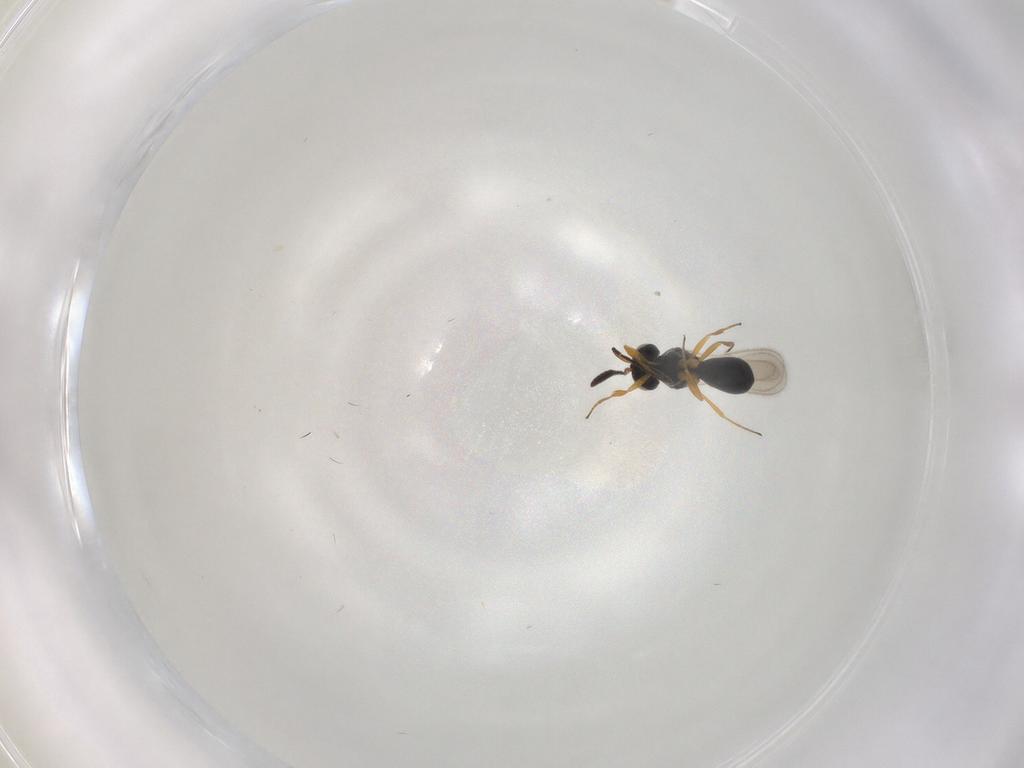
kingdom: Animalia
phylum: Arthropoda
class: Insecta
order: Hymenoptera
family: Scelionidae
